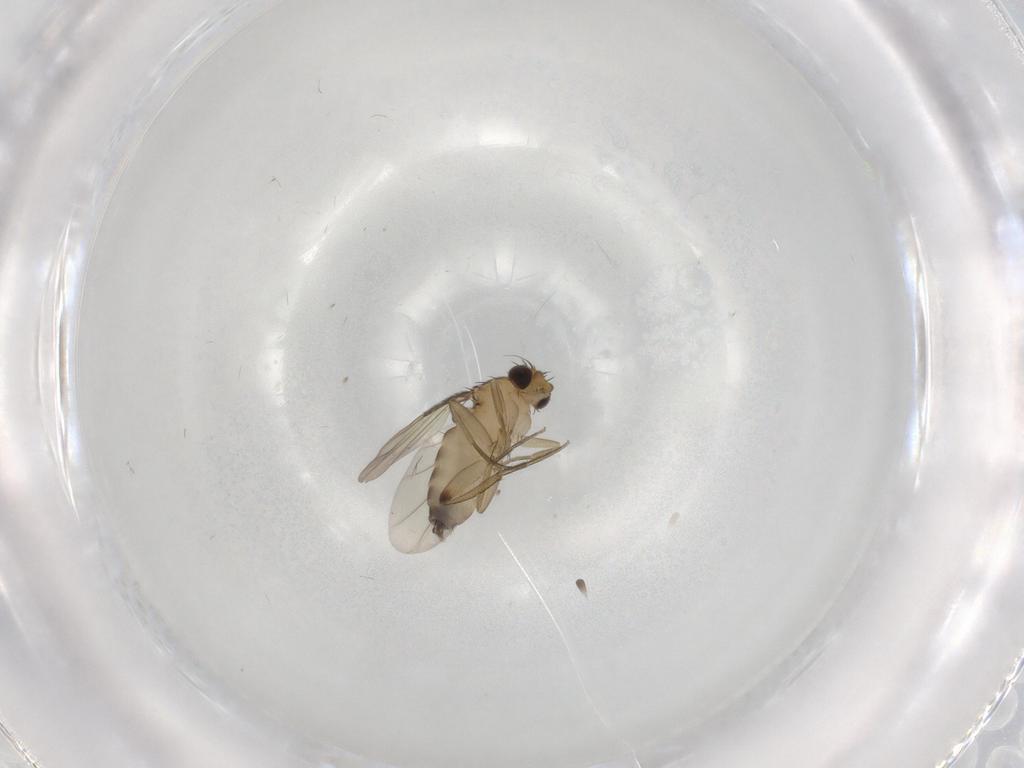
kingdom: Animalia
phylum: Arthropoda
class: Insecta
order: Diptera
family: Phoridae
